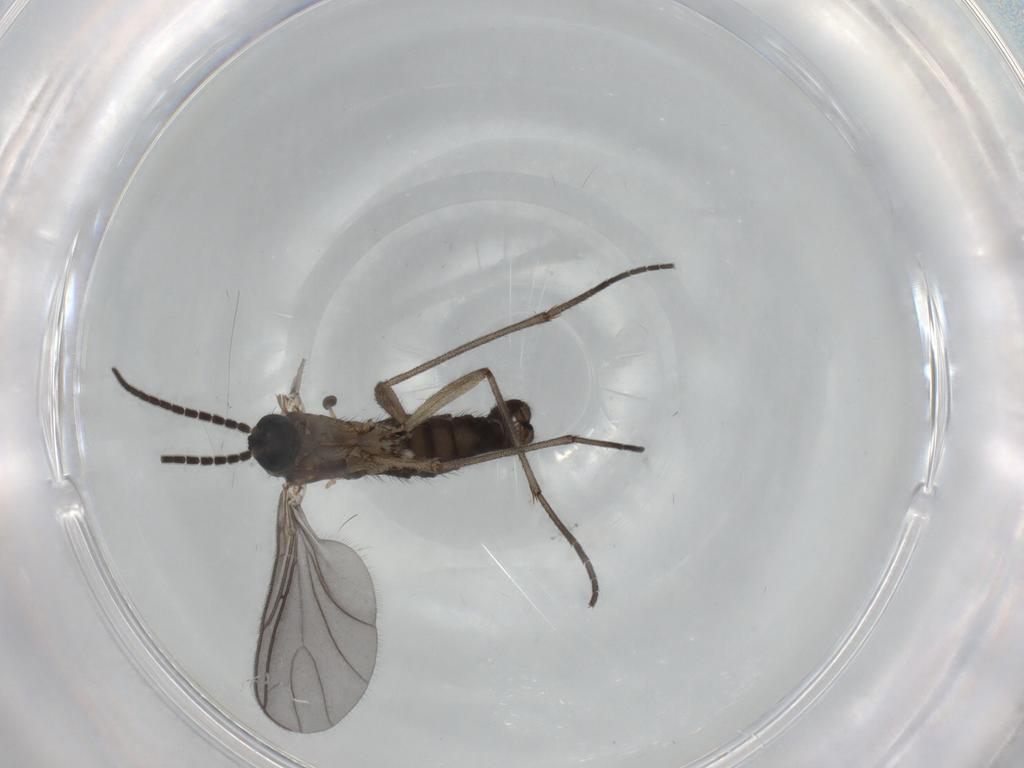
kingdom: Animalia
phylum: Arthropoda
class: Insecta
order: Diptera
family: Sciaridae
